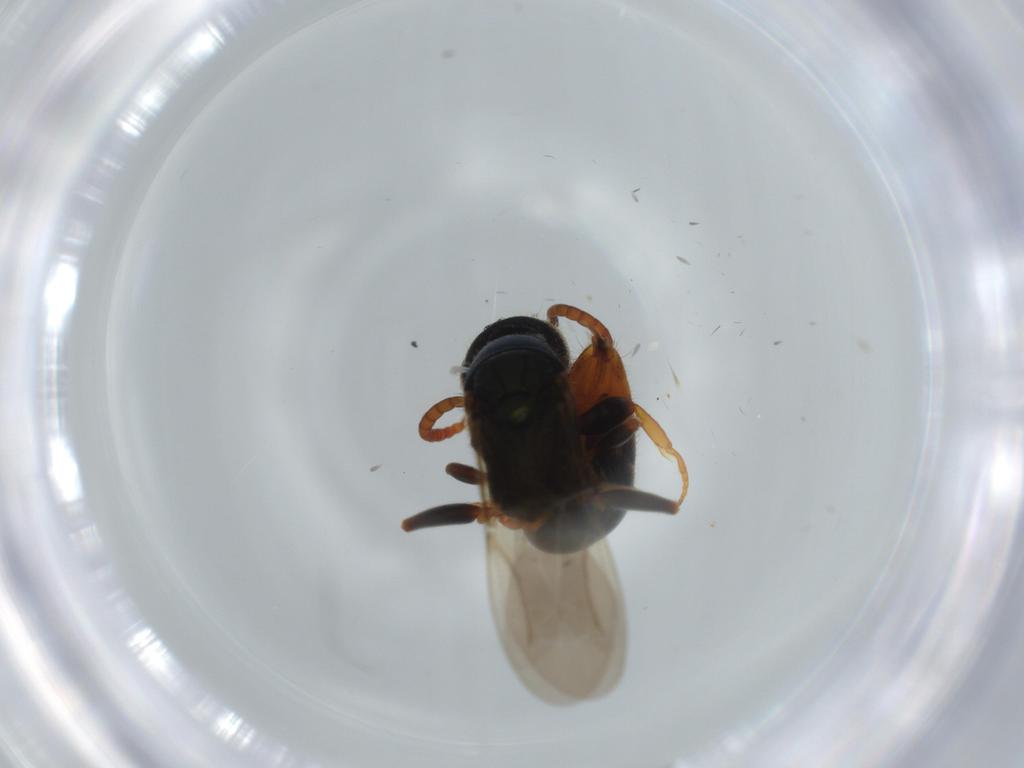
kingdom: Animalia
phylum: Arthropoda
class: Insecta
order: Hymenoptera
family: Bethylidae
